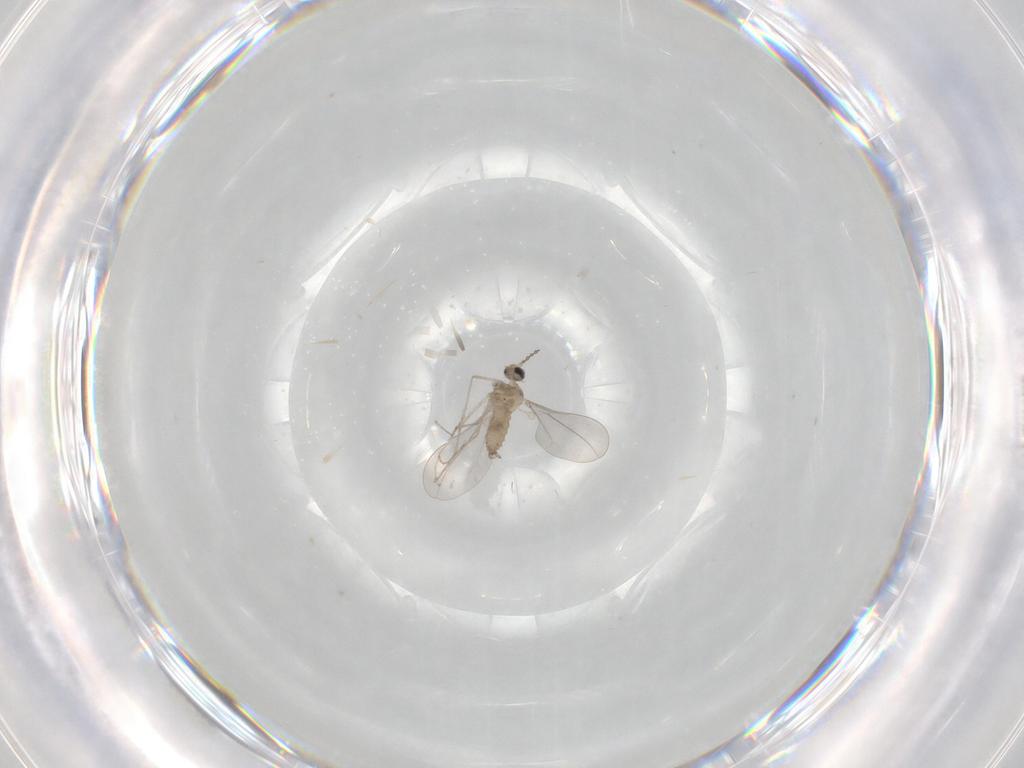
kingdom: Animalia
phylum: Arthropoda
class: Insecta
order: Diptera
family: Cecidomyiidae
